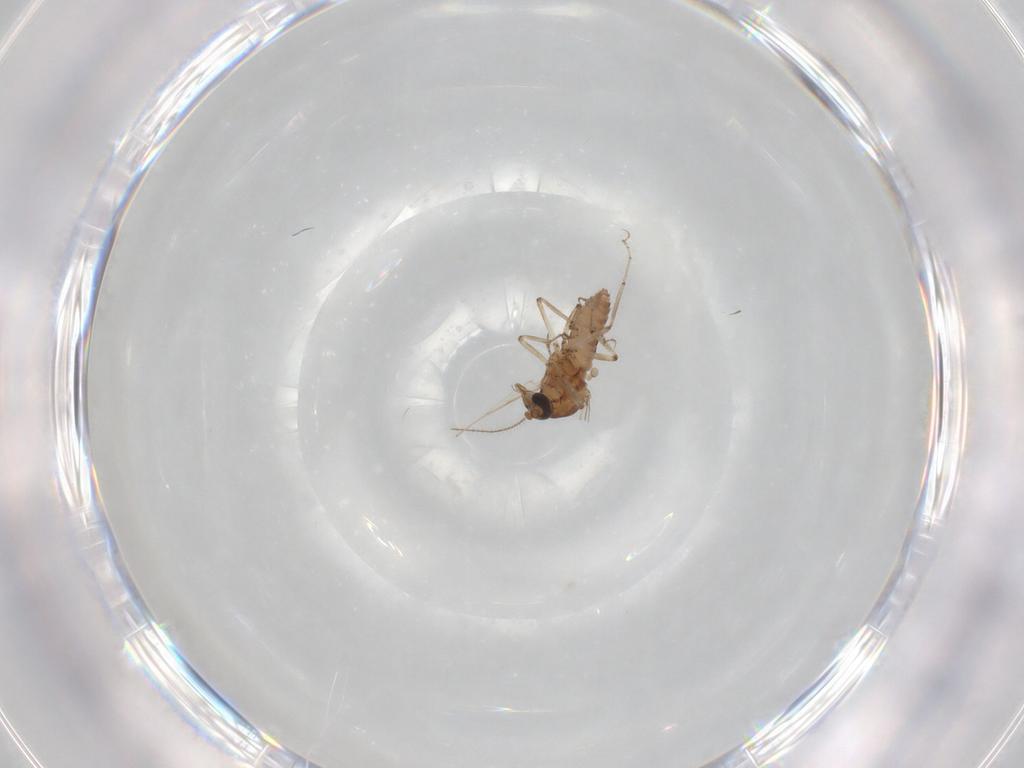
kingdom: Animalia
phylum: Arthropoda
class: Insecta
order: Diptera
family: Ceratopogonidae
